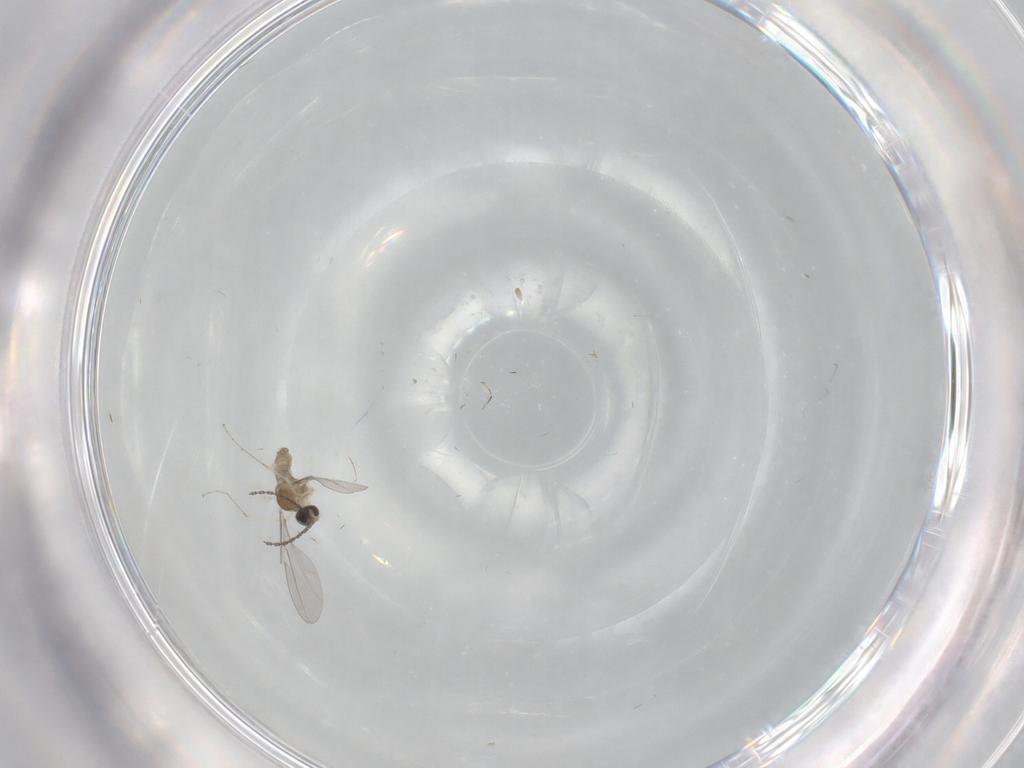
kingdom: Animalia
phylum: Arthropoda
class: Insecta
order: Diptera
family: Cecidomyiidae
